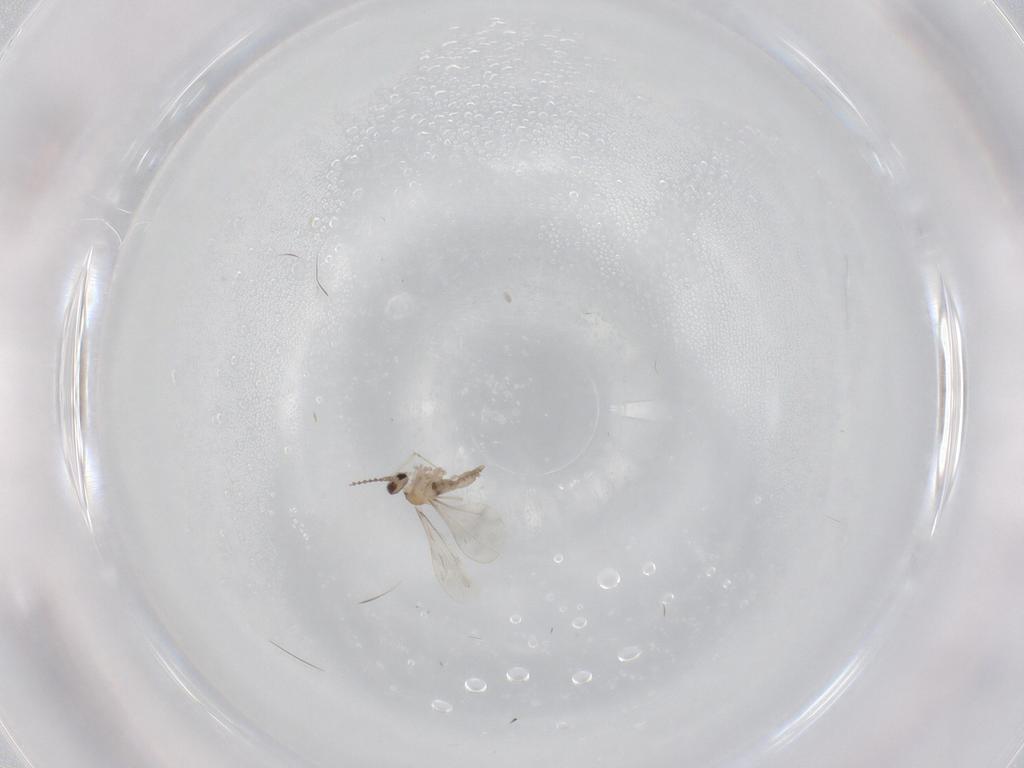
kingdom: Animalia
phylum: Arthropoda
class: Insecta
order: Diptera
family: Cecidomyiidae
